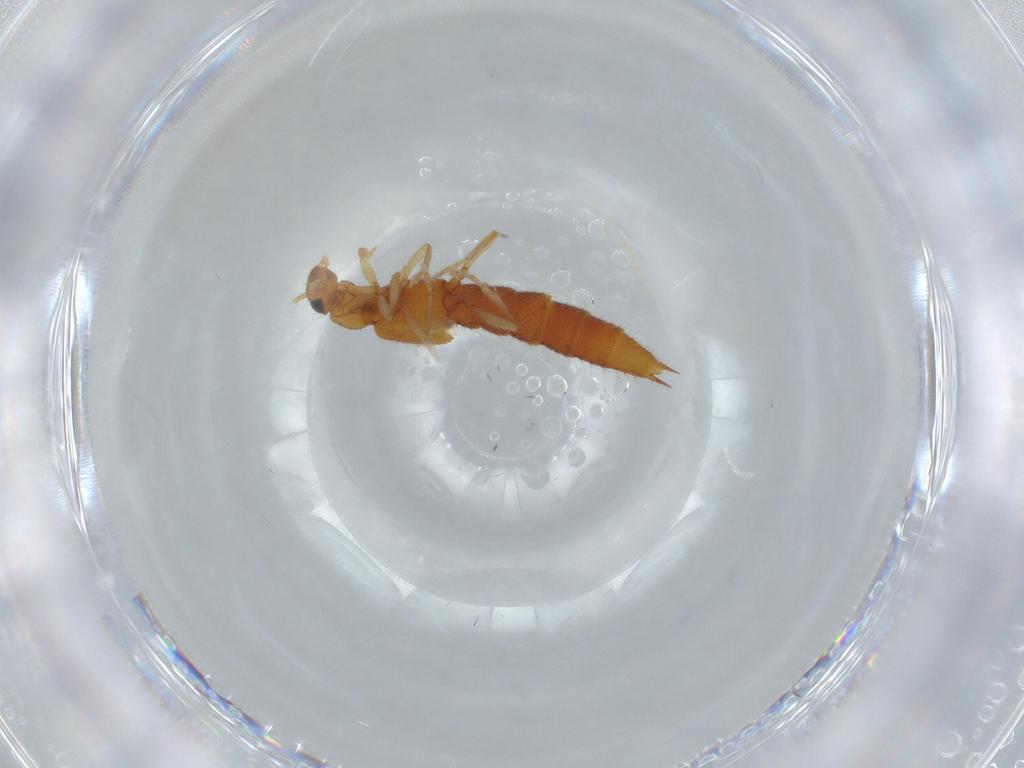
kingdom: Animalia
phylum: Arthropoda
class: Insecta
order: Coleoptera
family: Staphylinidae
